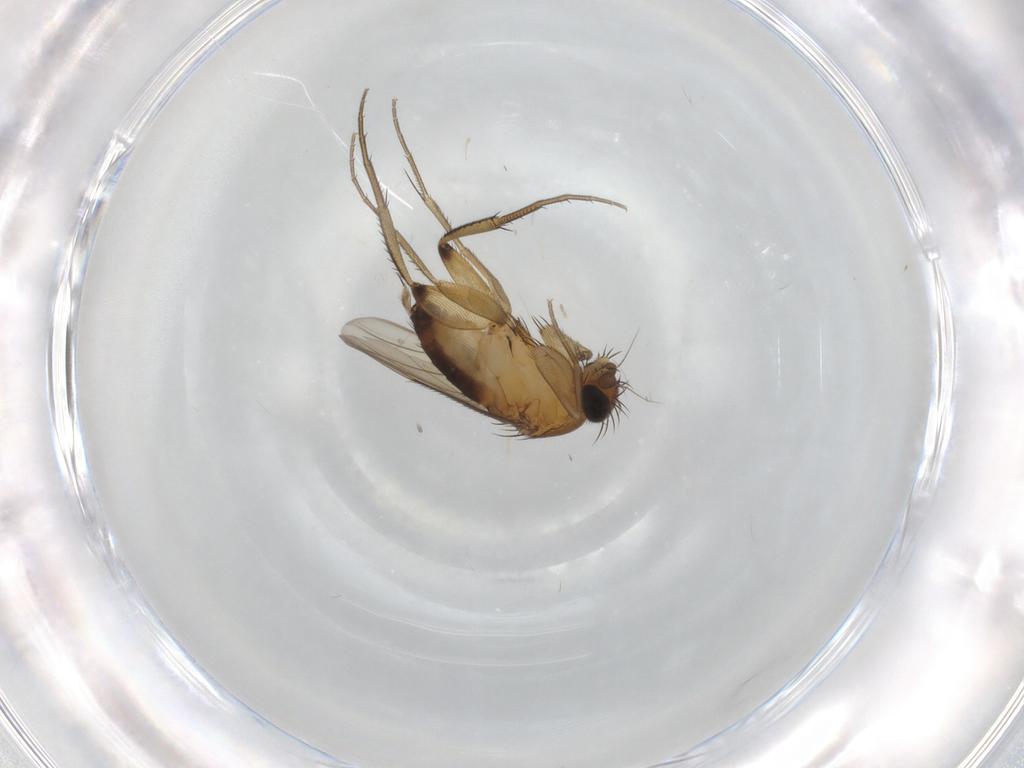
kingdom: Animalia
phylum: Arthropoda
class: Insecta
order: Diptera
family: Phoridae
